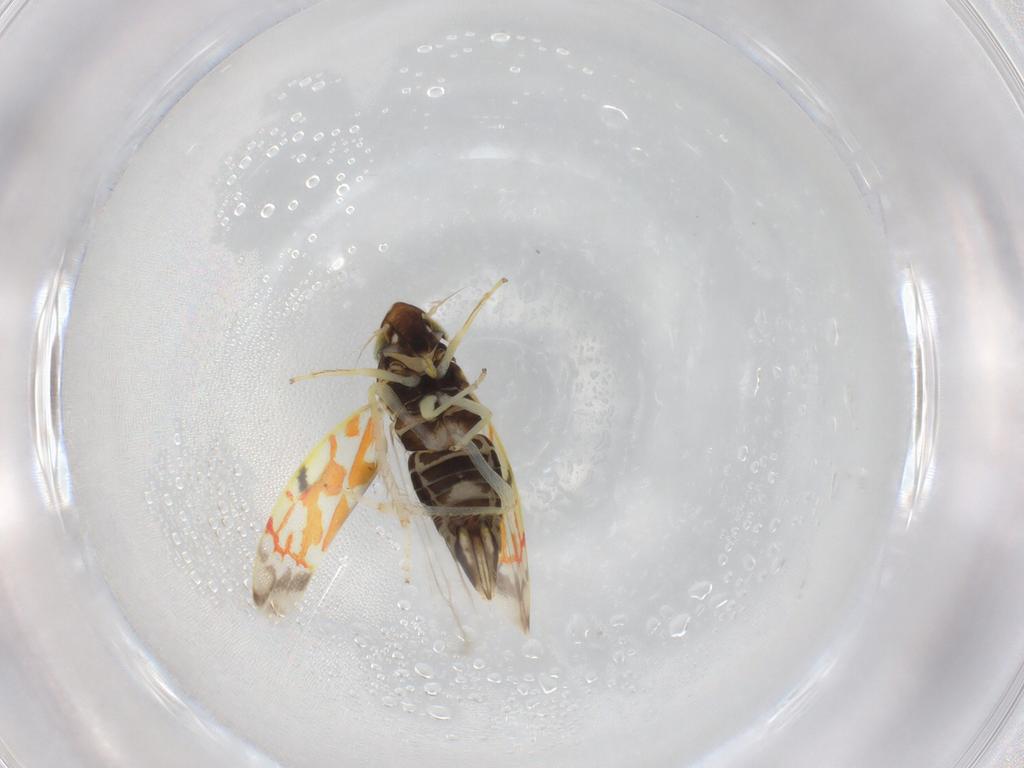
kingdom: Animalia
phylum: Arthropoda
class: Insecta
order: Hemiptera
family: Cicadellidae
